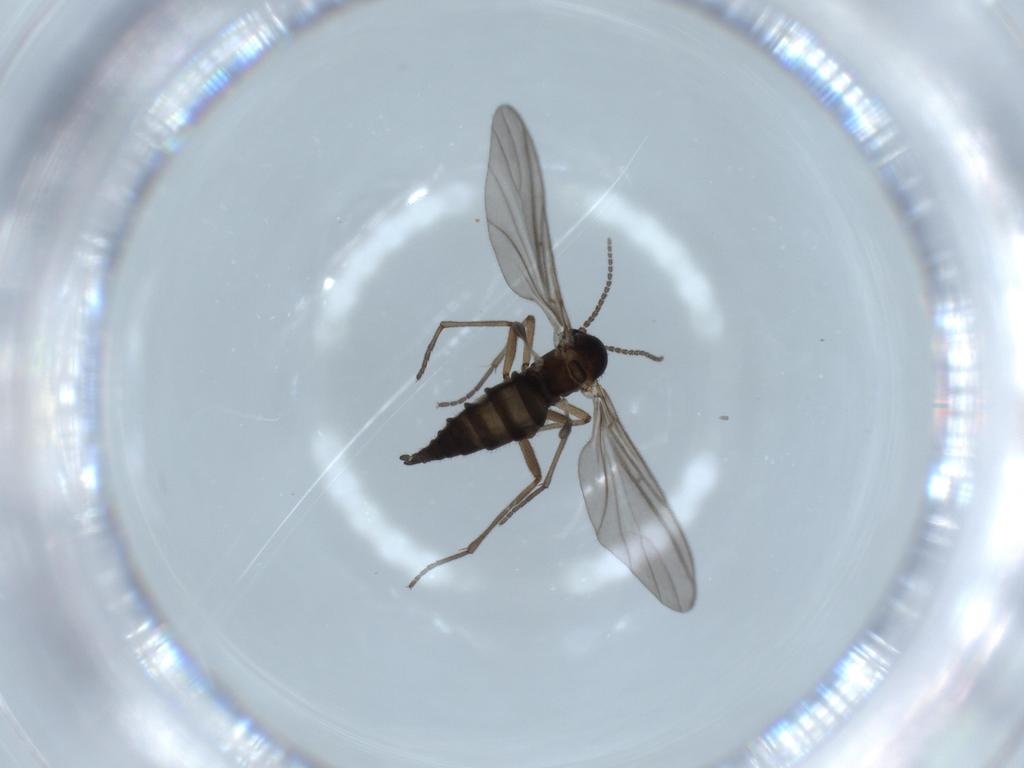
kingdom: Animalia
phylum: Arthropoda
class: Insecta
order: Diptera
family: Sciaridae
